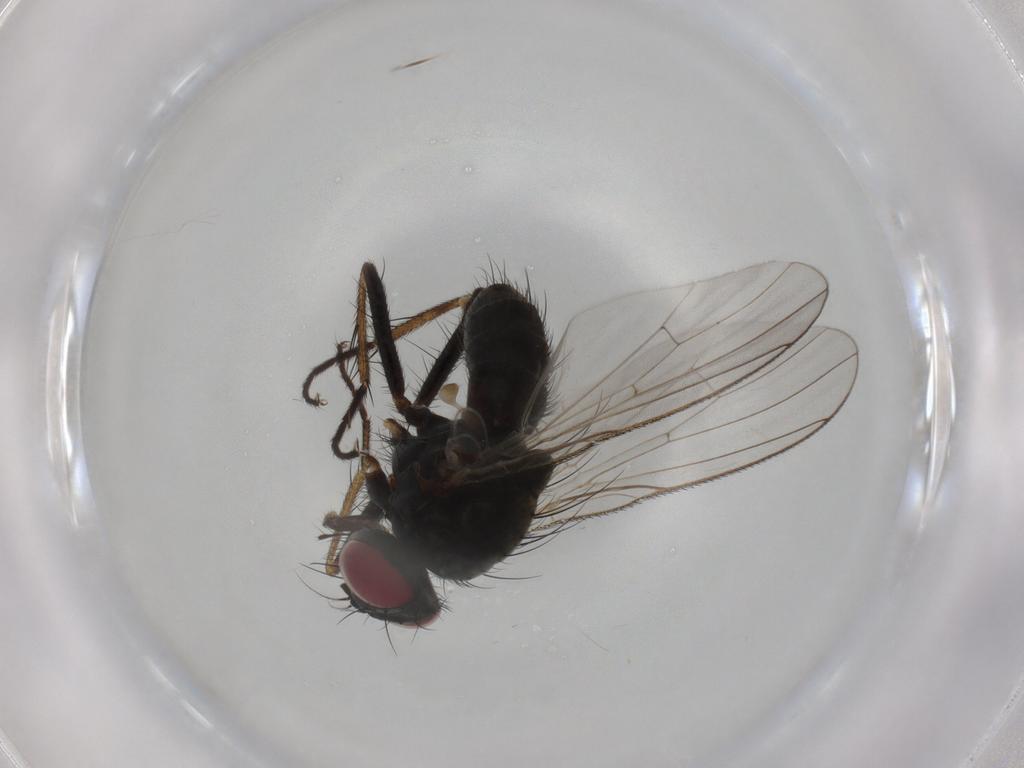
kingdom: Animalia
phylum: Arthropoda
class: Insecta
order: Diptera
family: Muscidae
